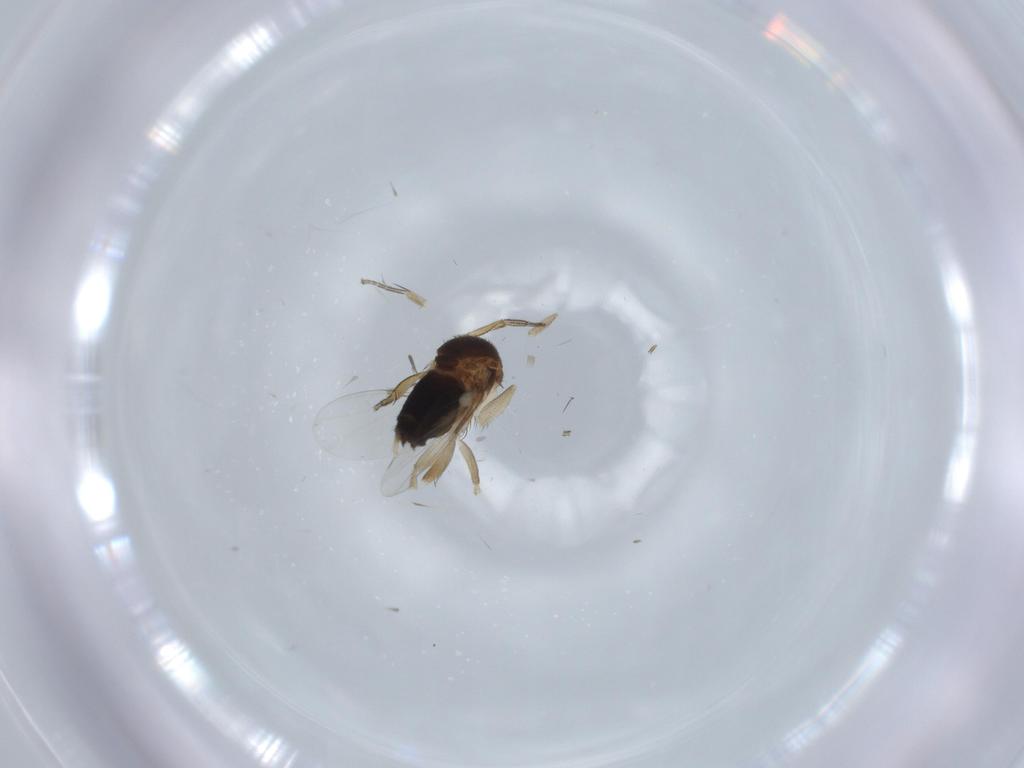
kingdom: Animalia
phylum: Arthropoda
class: Insecta
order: Diptera
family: Phoridae
